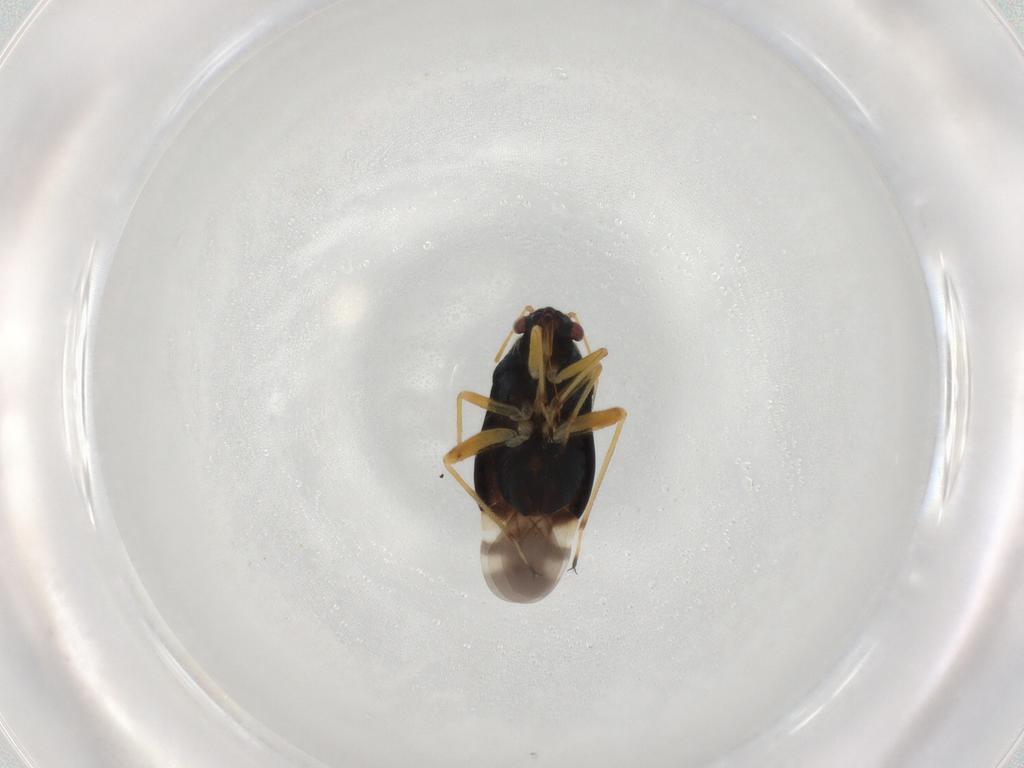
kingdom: Animalia
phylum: Arthropoda
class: Insecta
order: Hemiptera
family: Miridae
